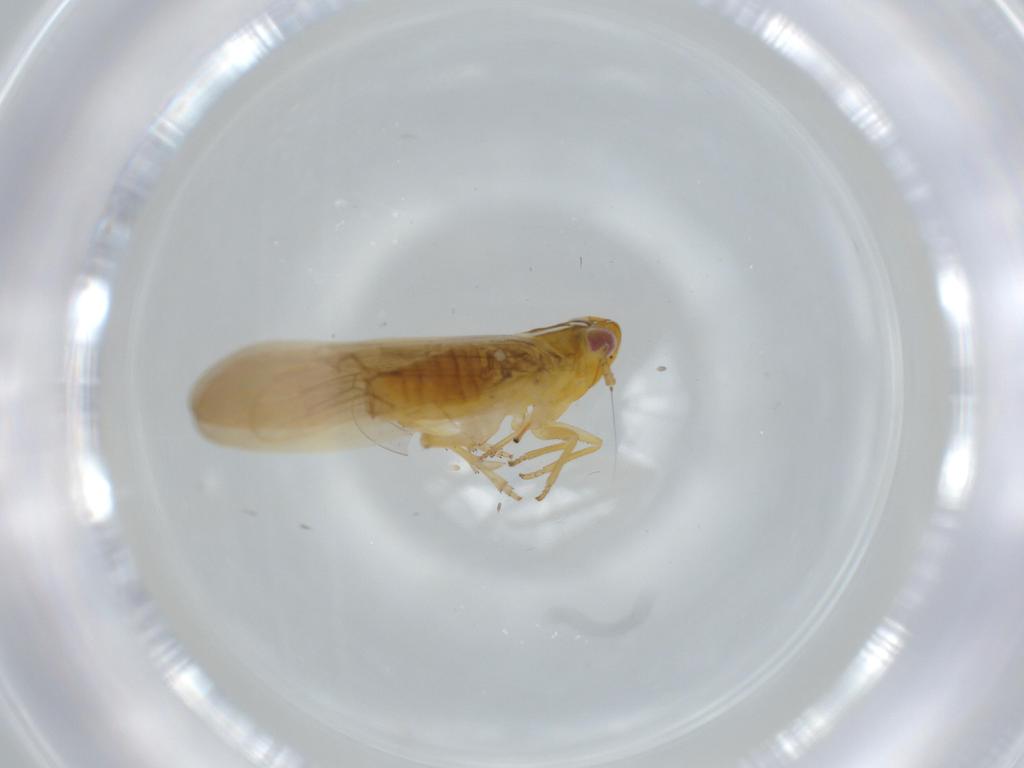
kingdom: Animalia
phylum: Arthropoda
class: Insecta
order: Hemiptera
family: Delphacidae
